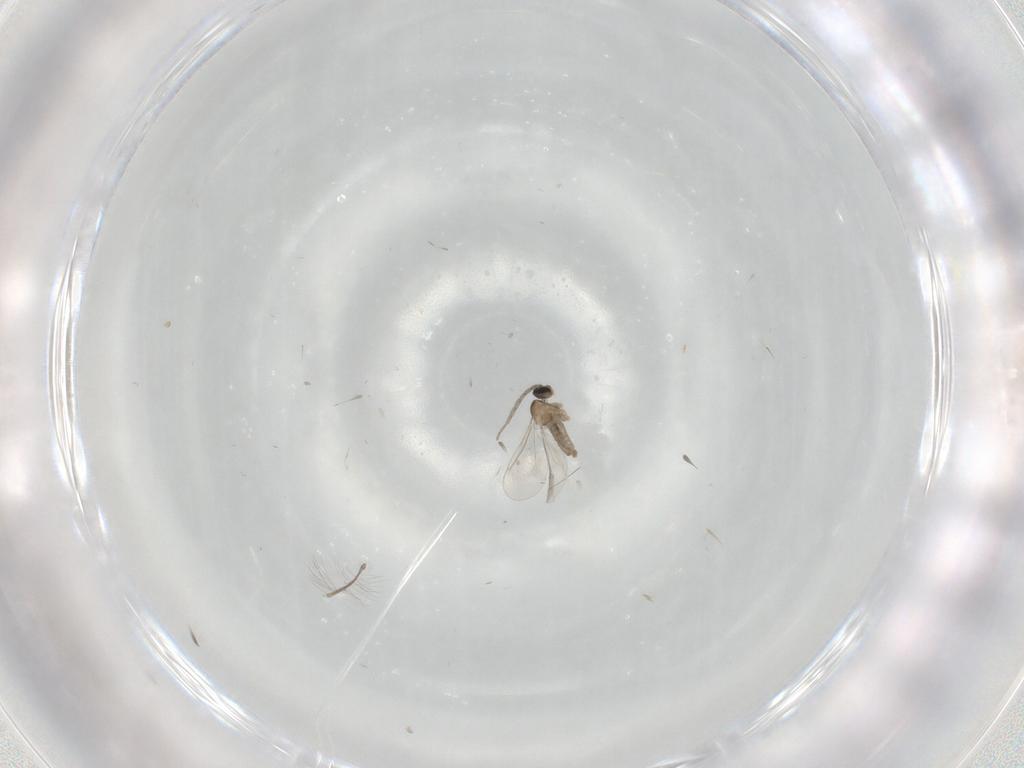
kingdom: Animalia
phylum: Arthropoda
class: Insecta
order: Diptera
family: Cecidomyiidae
